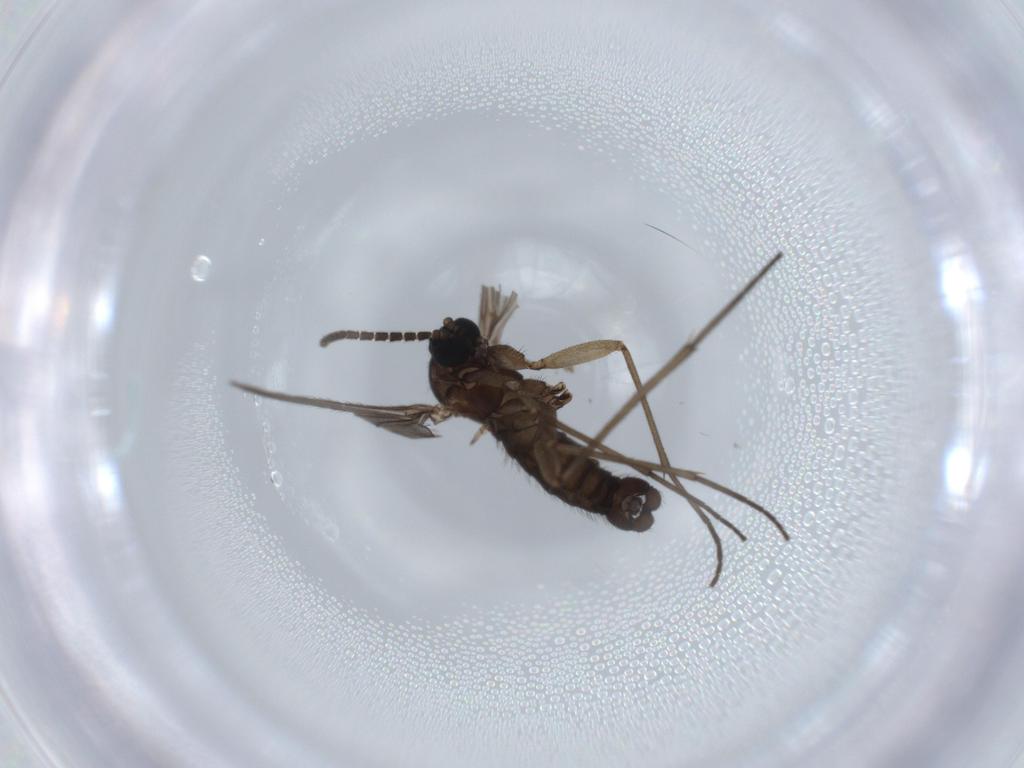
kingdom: Animalia
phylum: Arthropoda
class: Insecta
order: Diptera
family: Sciaridae
